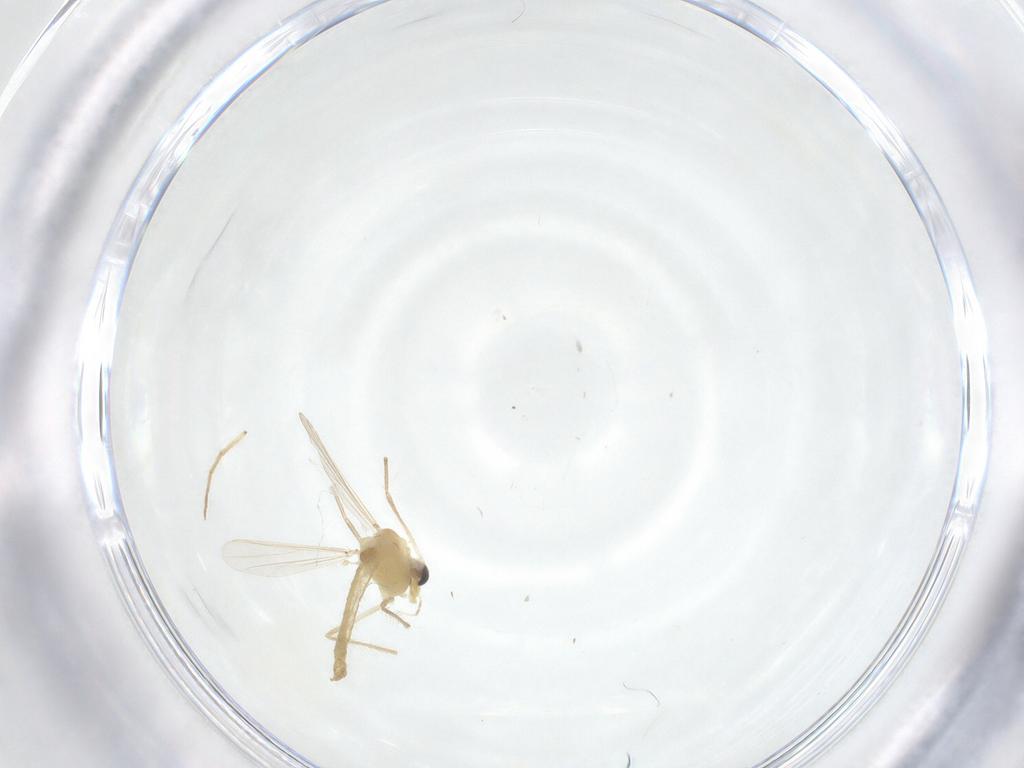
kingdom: Animalia
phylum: Arthropoda
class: Insecta
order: Diptera
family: Chironomidae
